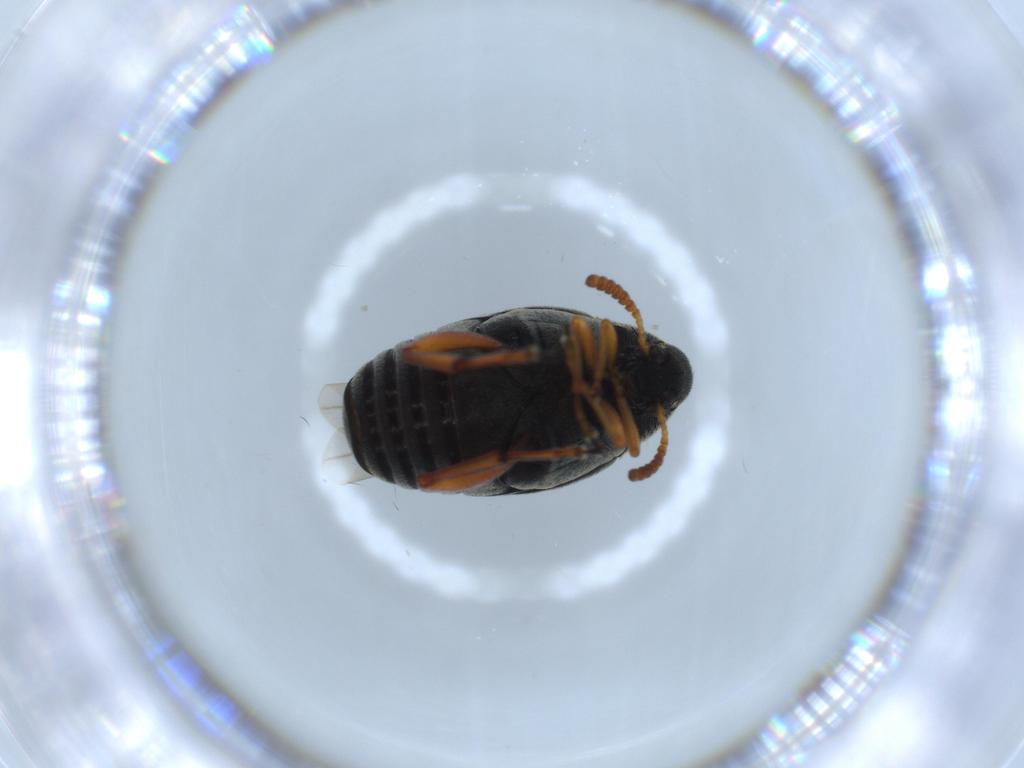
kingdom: Animalia
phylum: Arthropoda
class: Insecta
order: Coleoptera
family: Chrysomelidae
